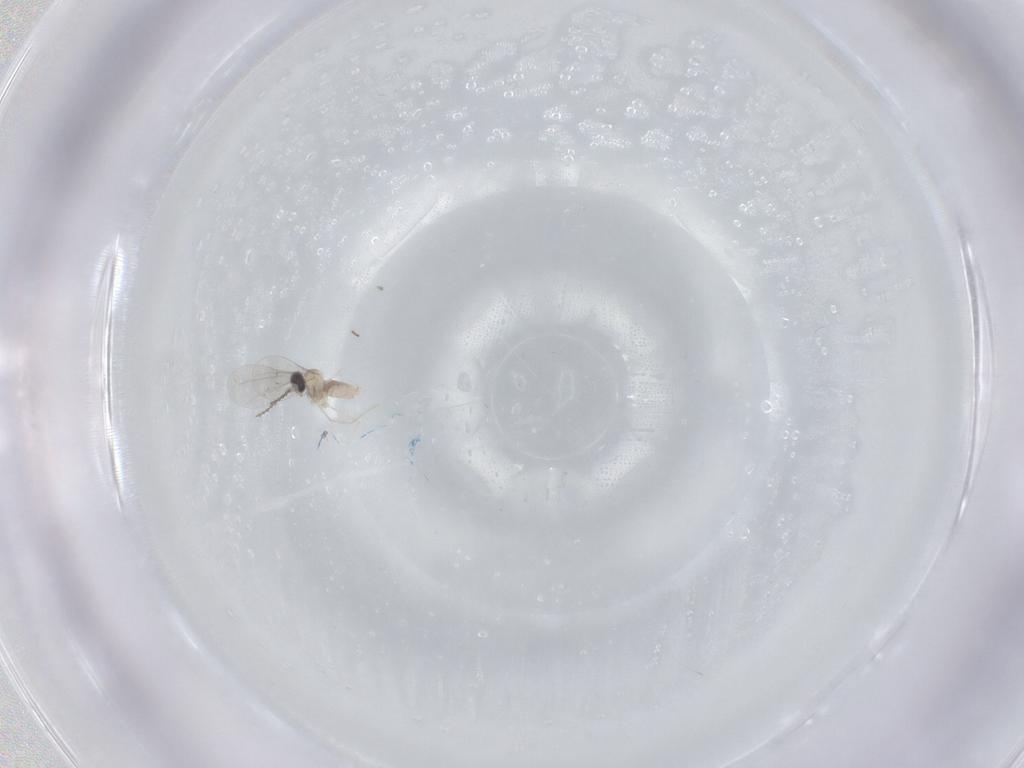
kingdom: Animalia
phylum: Arthropoda
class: Insecta
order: Diptera
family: Cecidomyiidae
